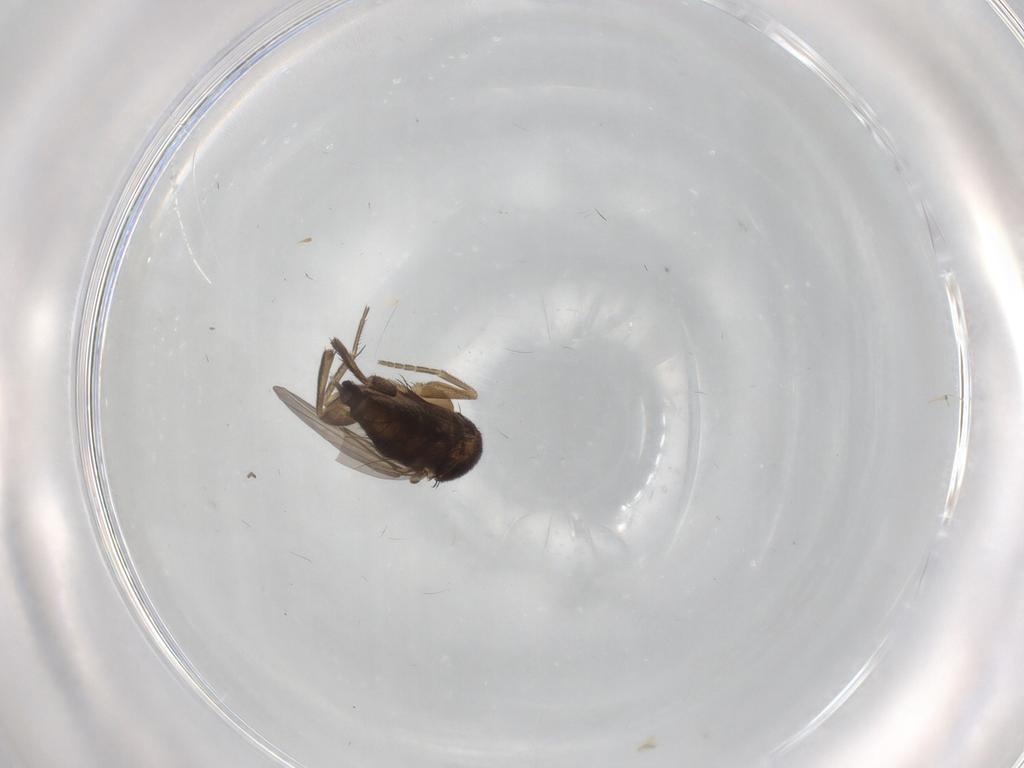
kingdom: Animalia
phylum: Arthropoda
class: Insecta
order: Diptera
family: Phoridae
